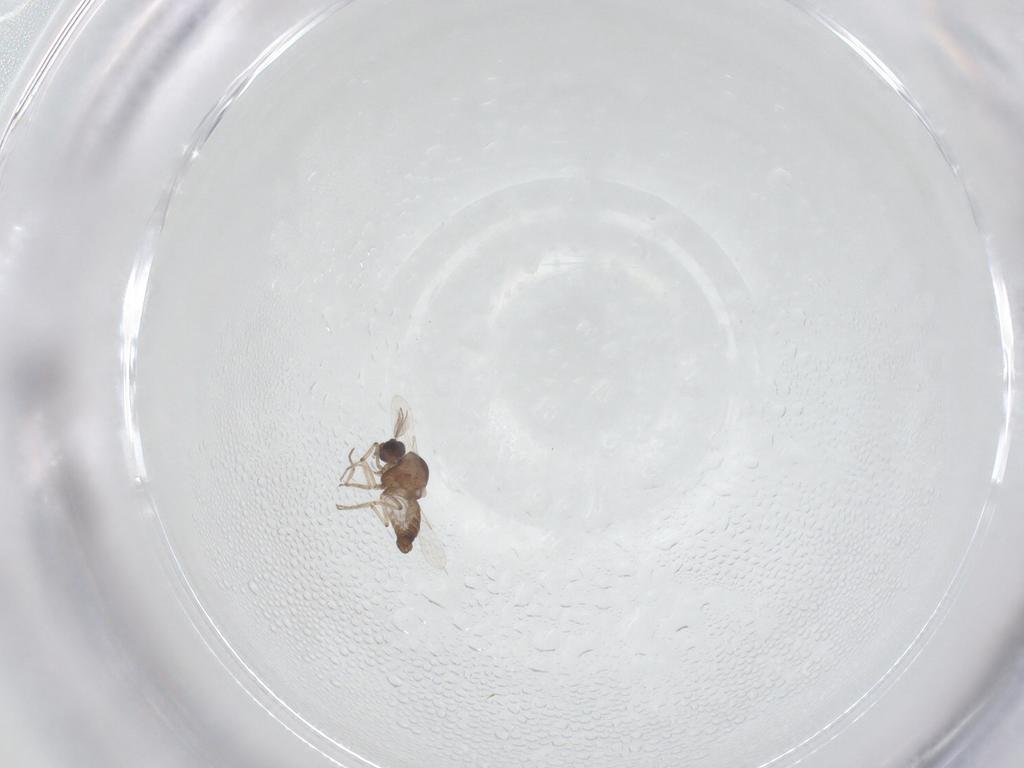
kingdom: Animalia
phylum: Arthropoda
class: Insecta
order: Diptera
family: Ceratopogonidae
